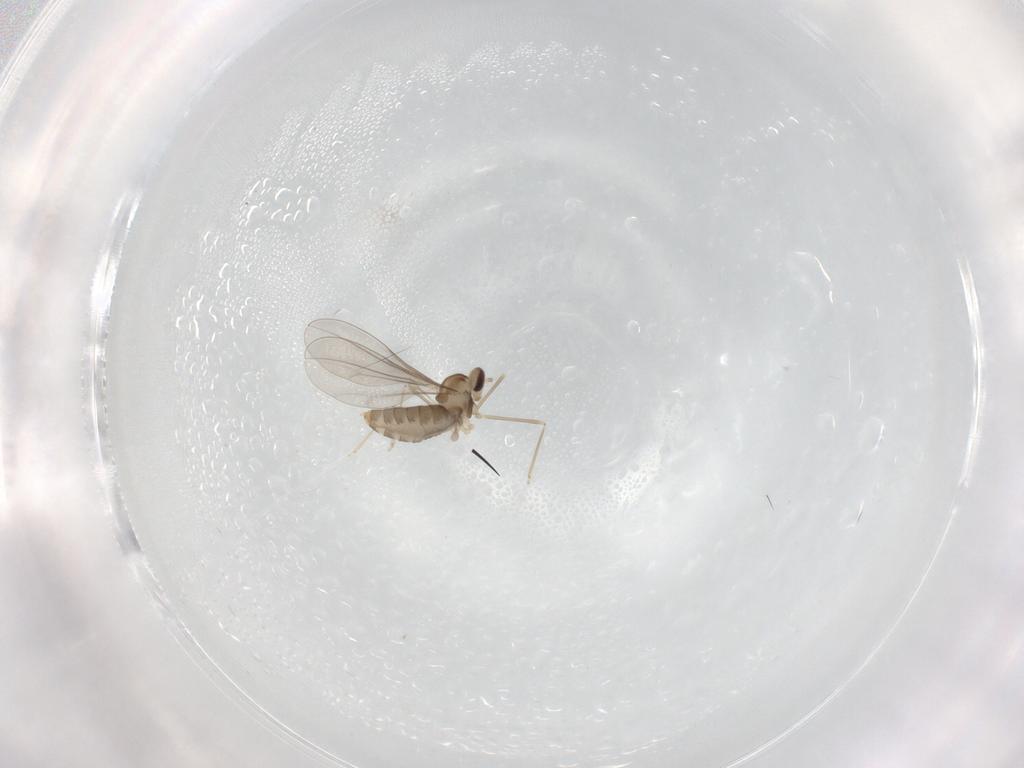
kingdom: Animalia
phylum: Arthropoda
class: Insecta
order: Diptera
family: Cecidomyiidae
